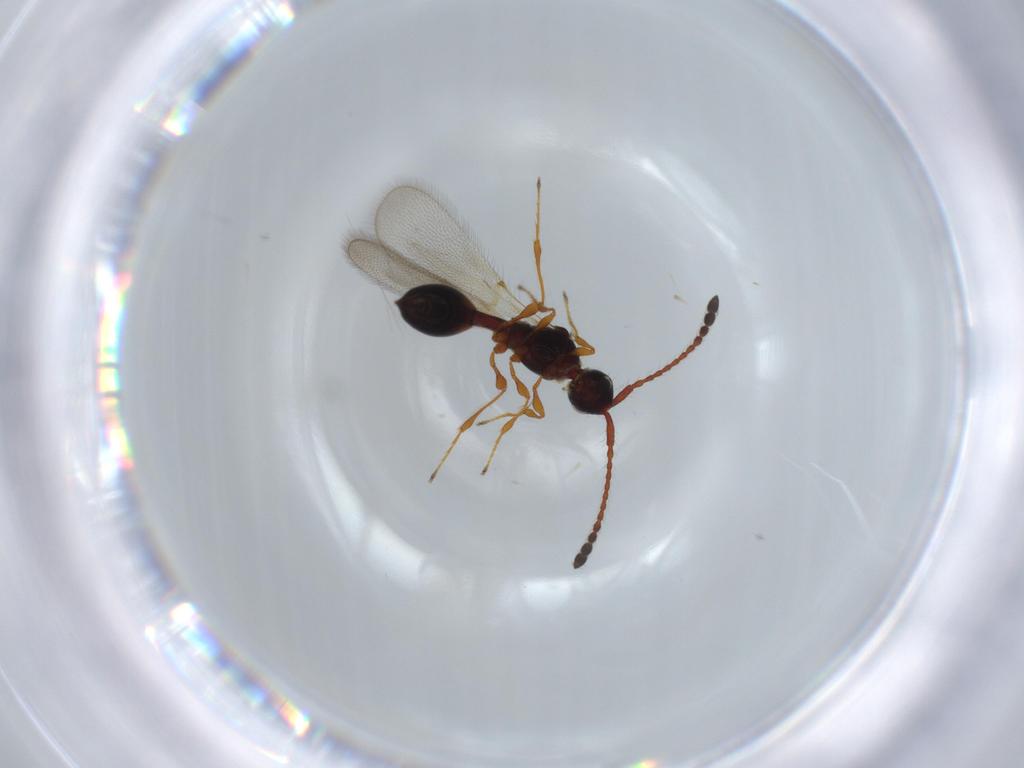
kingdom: Animalia
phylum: Arthropoda
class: Insecta
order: Hymenoptera
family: Diapriidae
